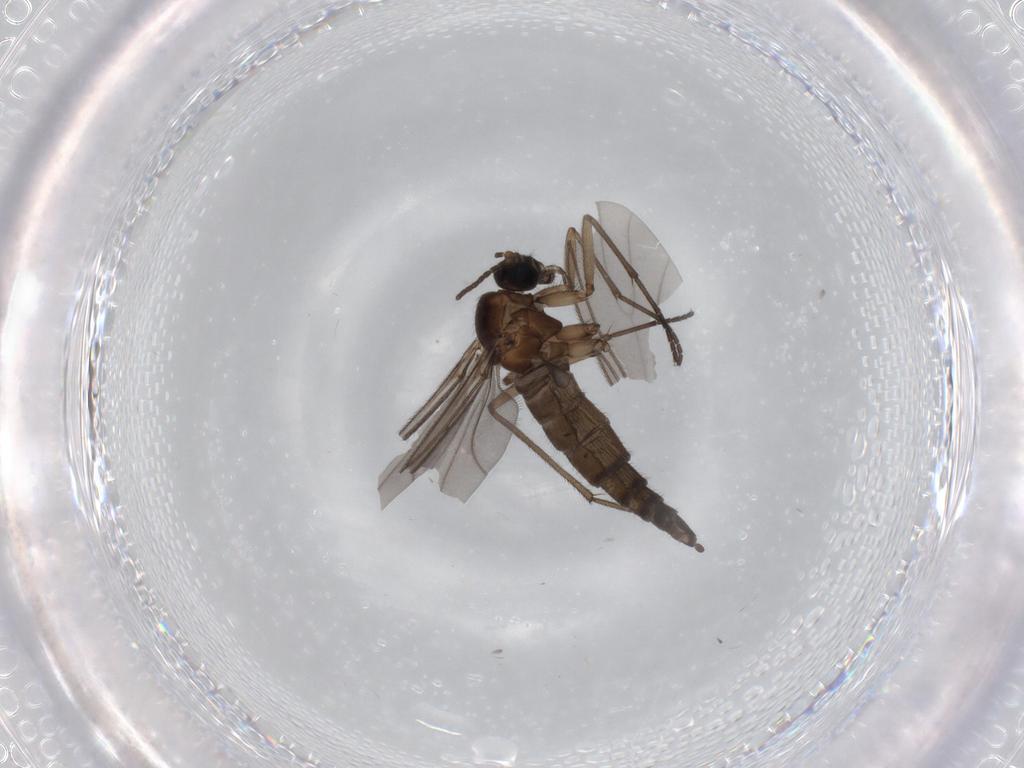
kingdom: Animalia
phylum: Arthropoda
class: Insecta
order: Diptera
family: Sciaridae
